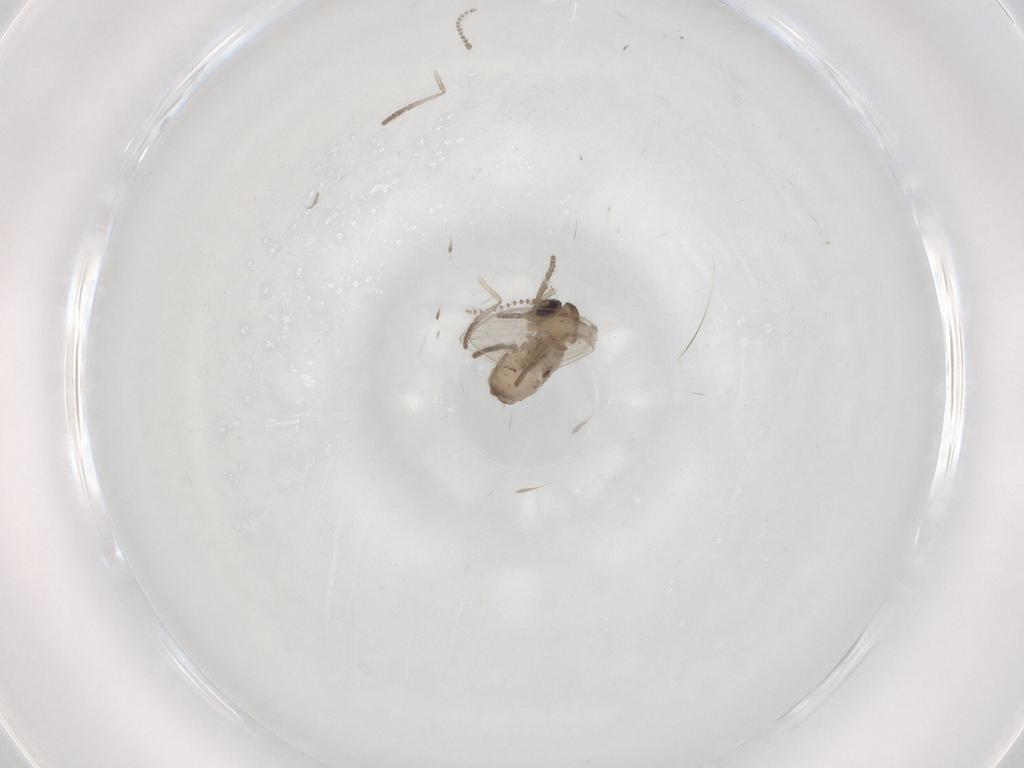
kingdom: Animalia
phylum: Arthropoda
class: Insecta
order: Diptera
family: Psychodidae
